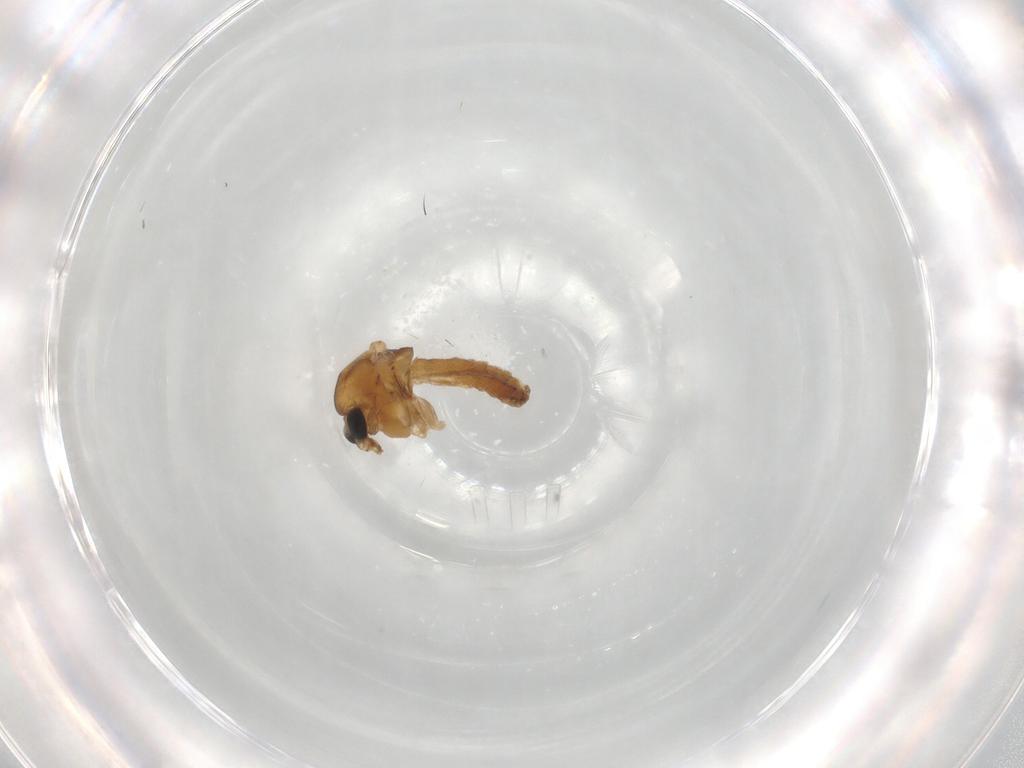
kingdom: Animalia
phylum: Arthropoda
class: Insecta
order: Diptera
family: Chironomidae
